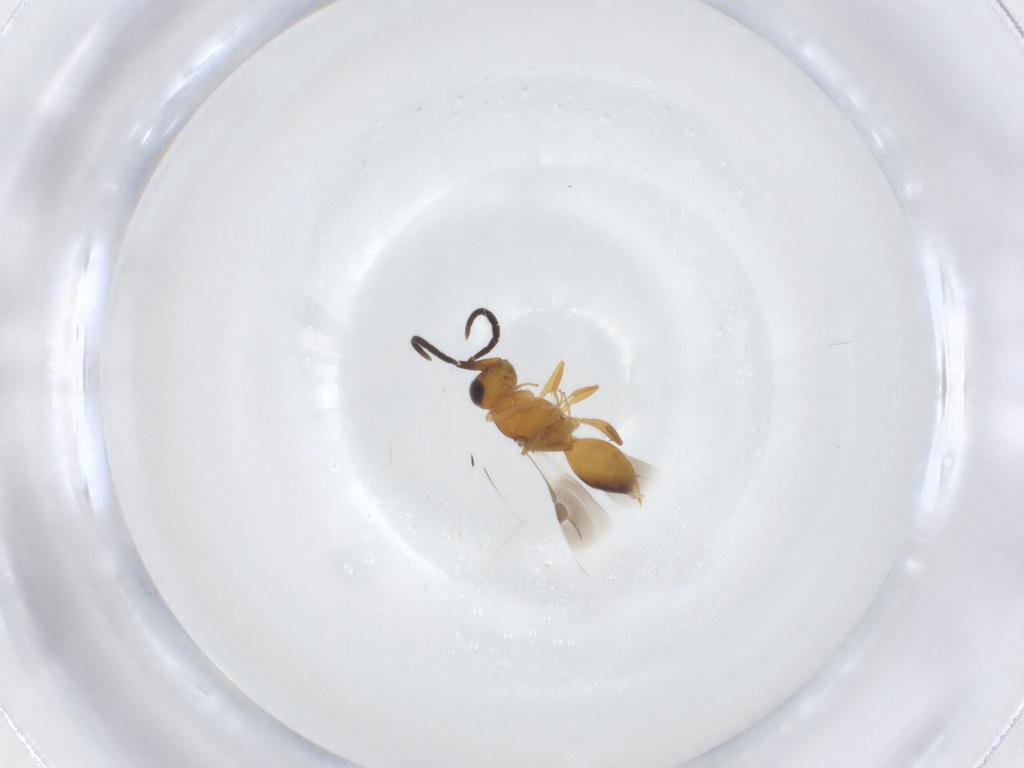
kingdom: Animalia
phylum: Arthropoda
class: Insecta
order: Hymenoptera
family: Megaspilidae
